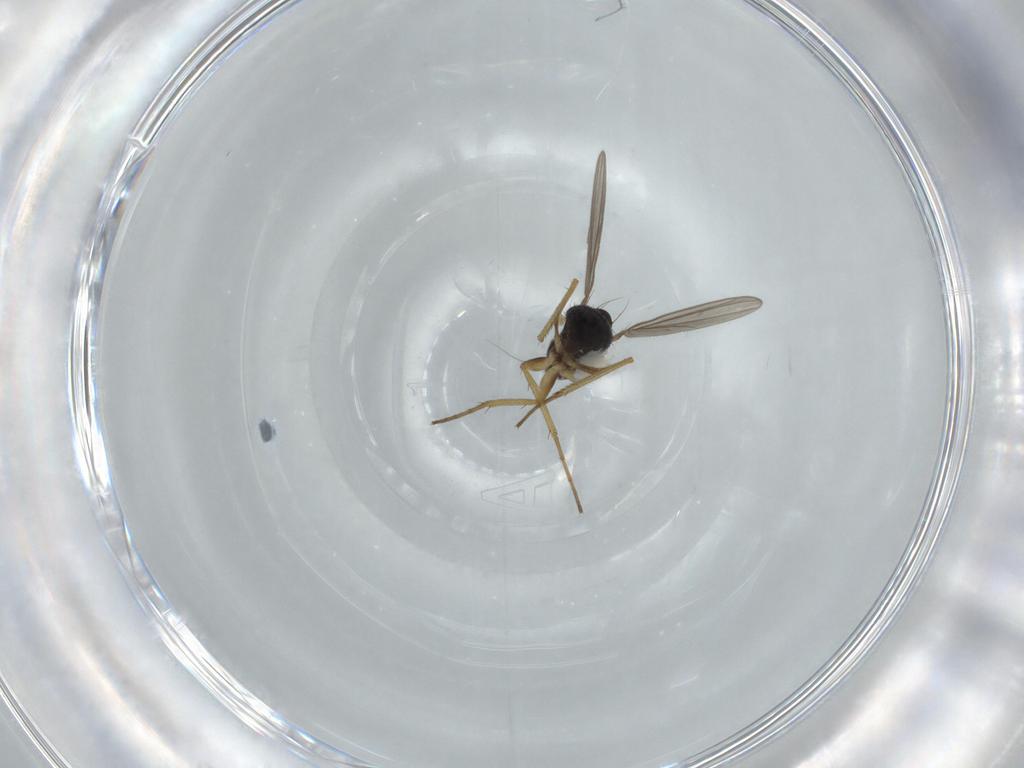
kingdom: Animalia
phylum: Arthropoda
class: Insecta
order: Diptera
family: Dolichopodidae
